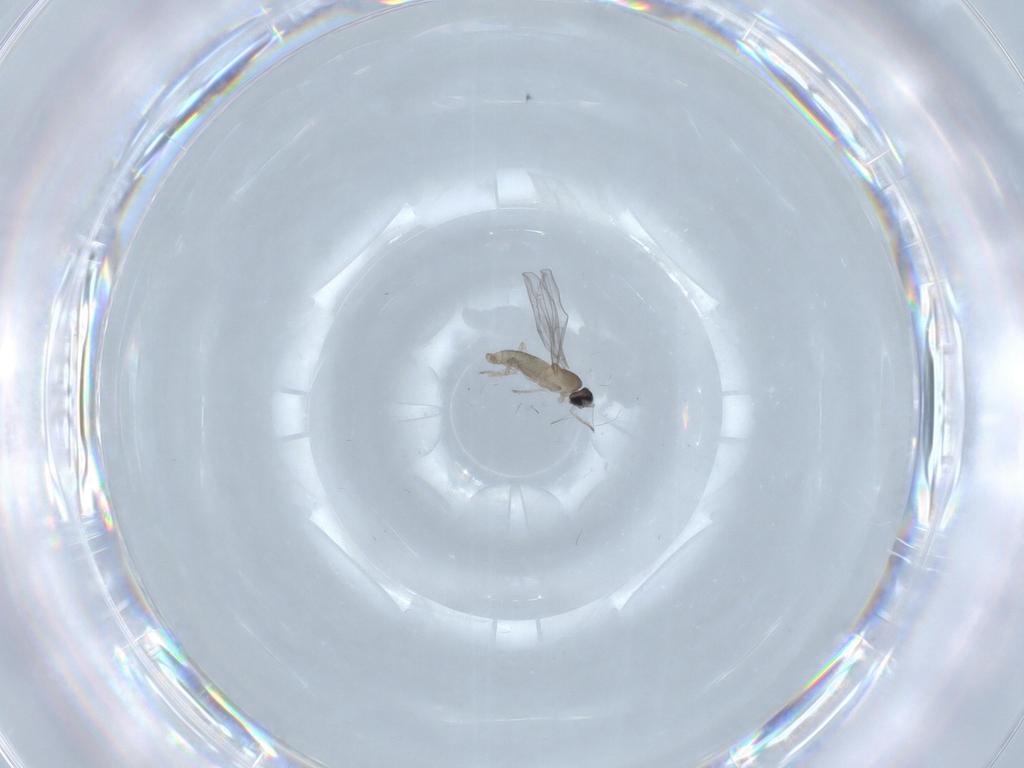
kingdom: Animalia
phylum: Arthropoda
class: Insecta
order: Diptera
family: Cecidomyiidae
